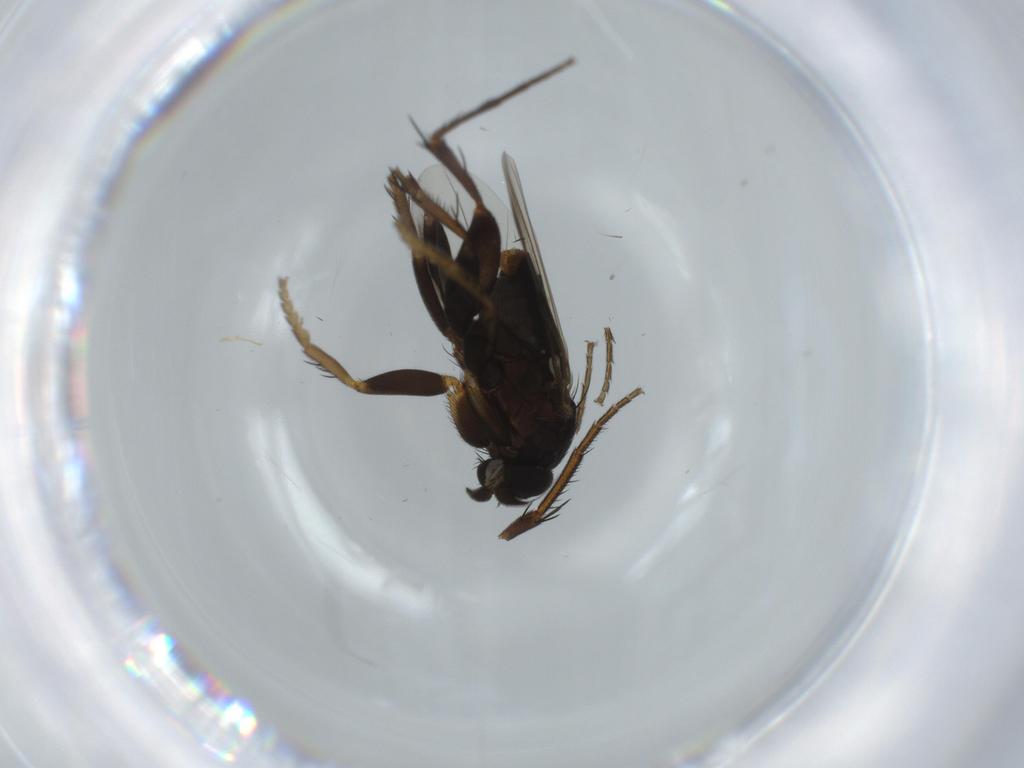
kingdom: Animalia
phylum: Arthropoda
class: Insecta
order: Diptera
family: Phoridae
